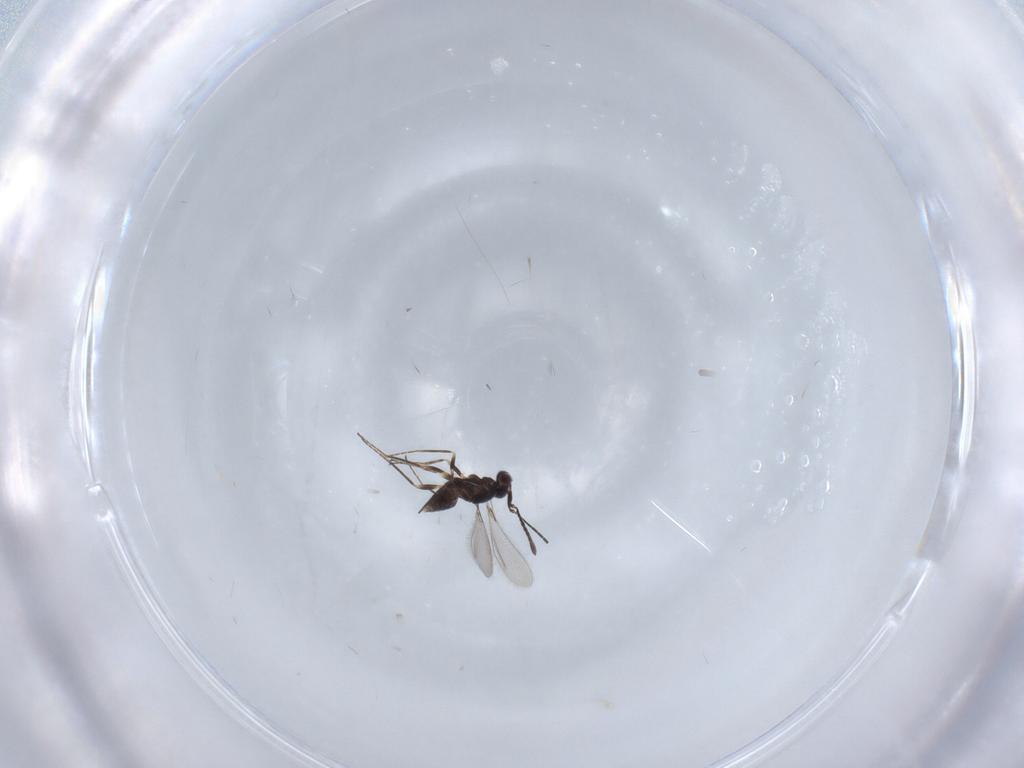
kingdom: Animalia
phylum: Arthropoda
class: Insecta
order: Hymenoptera
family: Mymaridae
